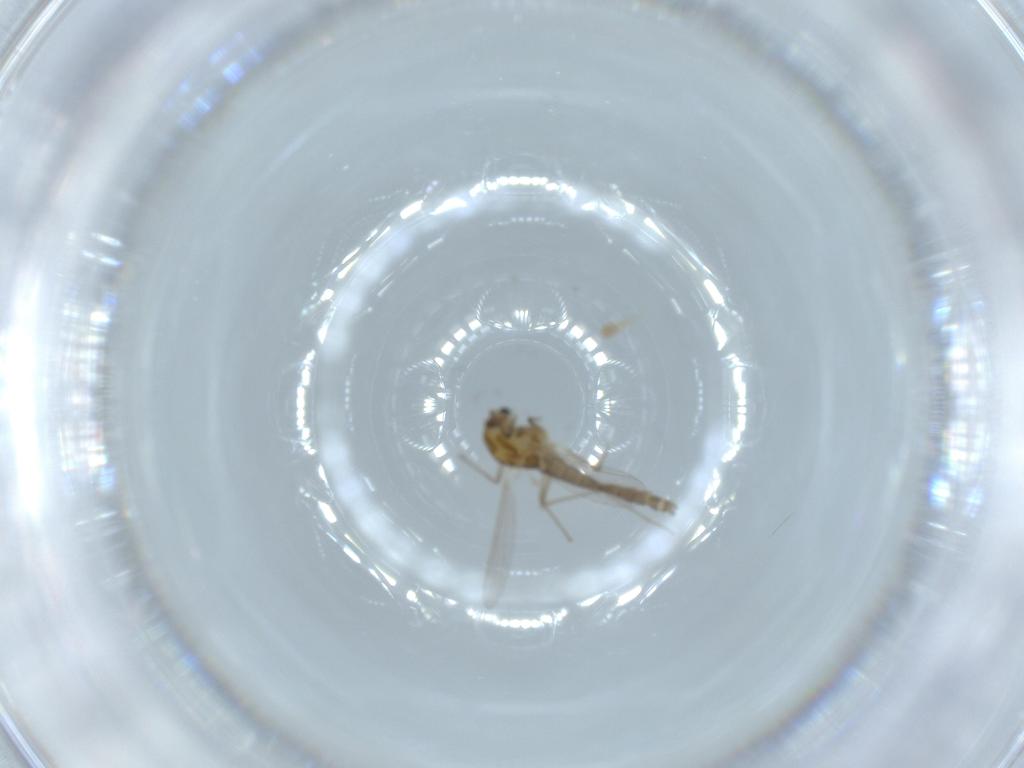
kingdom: Animalia
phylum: Arthropoda
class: Insecta
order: Diptera
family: Chironomidae
